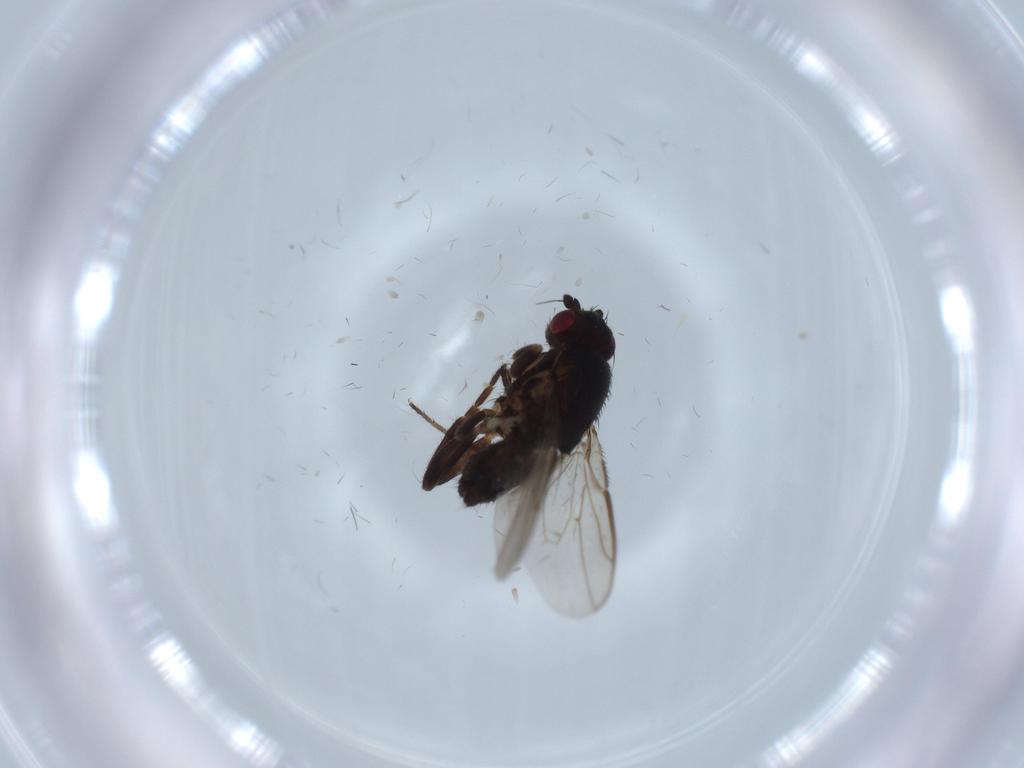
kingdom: Animalia
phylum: Arthropoda
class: Insecta
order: Diptera
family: Sphaeroceridae
